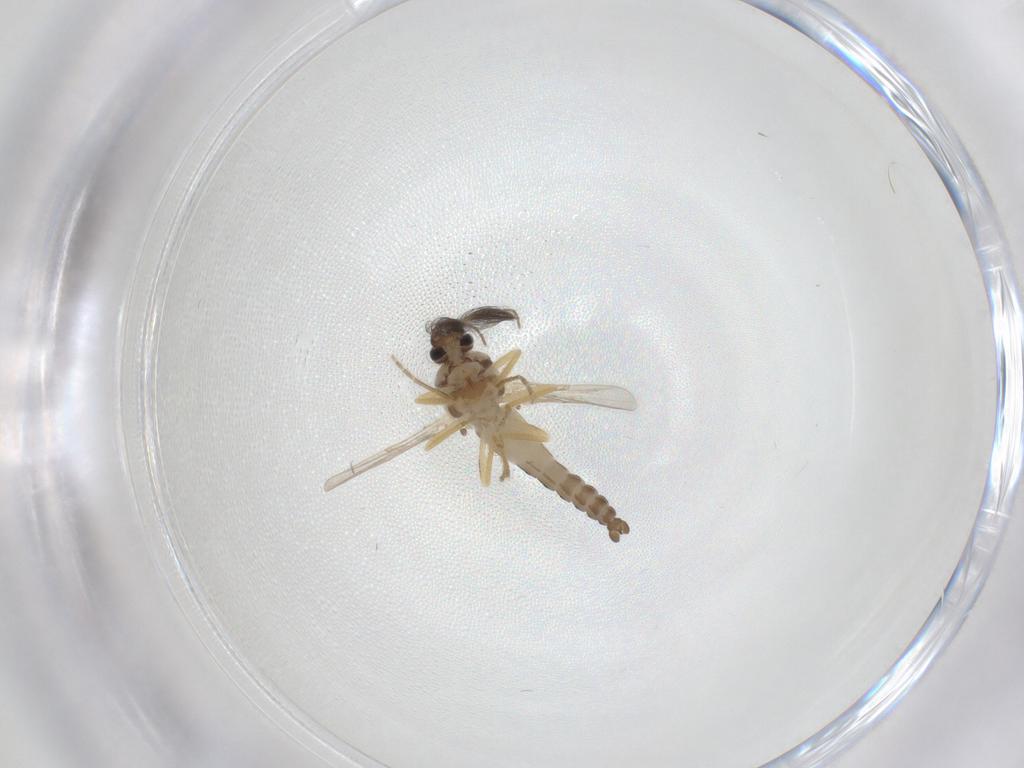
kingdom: Animalia
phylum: Arthropoda
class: Insecta
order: Diptera
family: Ceratopogonidae
